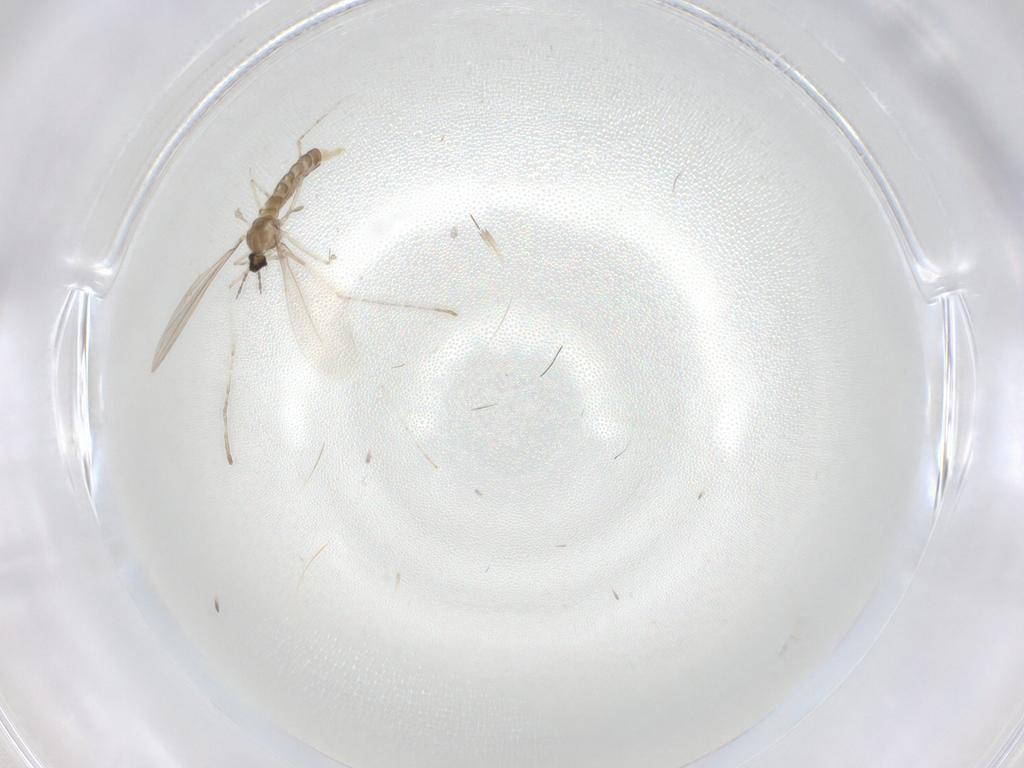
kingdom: Animalia
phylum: Arthropoda
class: Insecta
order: Diptera
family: Cecidomyiidae
